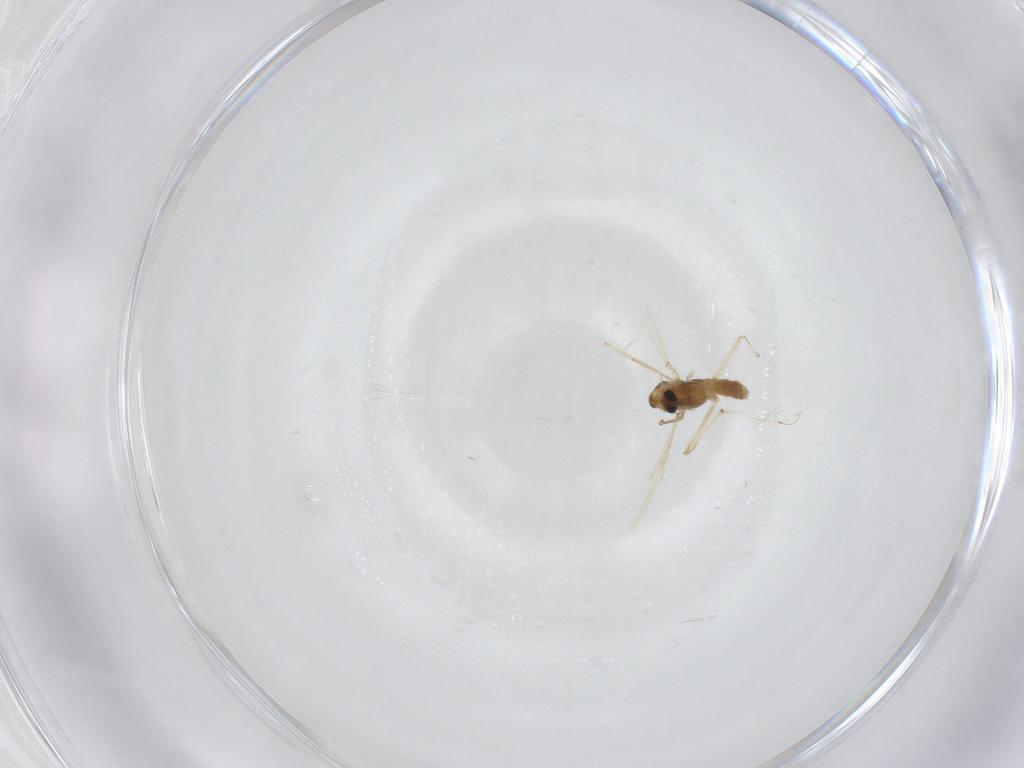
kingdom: Animalia
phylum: Arthropoda
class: Insecta
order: Diptera
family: Chironomidae
